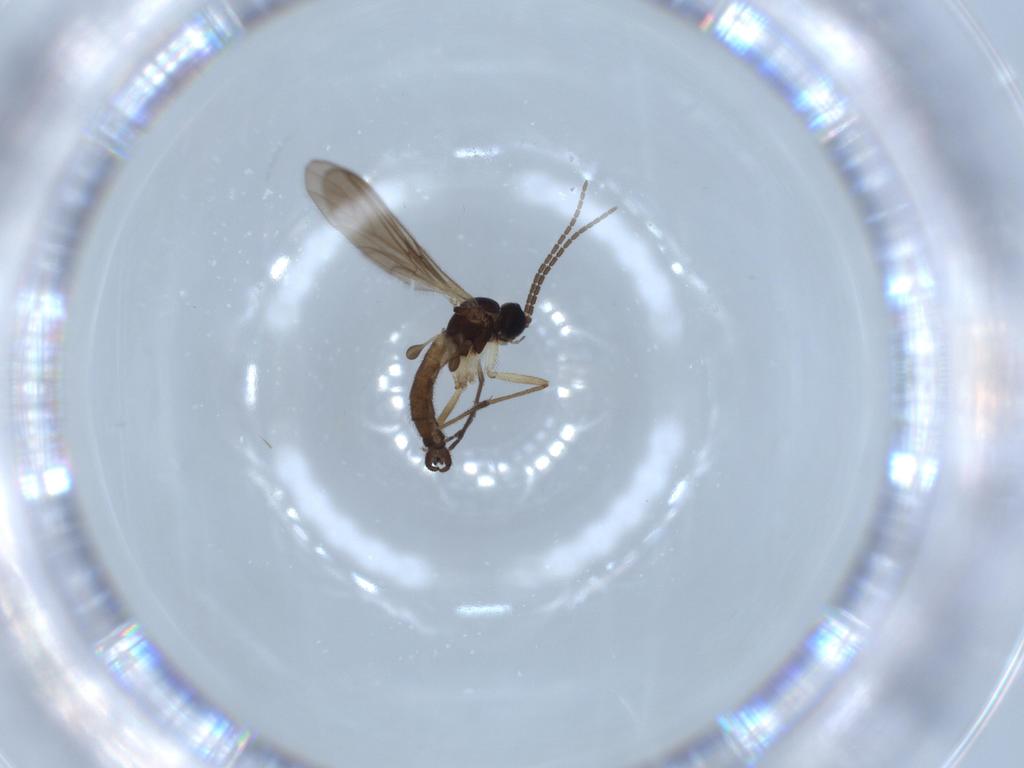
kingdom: Animalia
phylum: Arthropoda
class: Insecta
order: Diptera
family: Sciaridae
